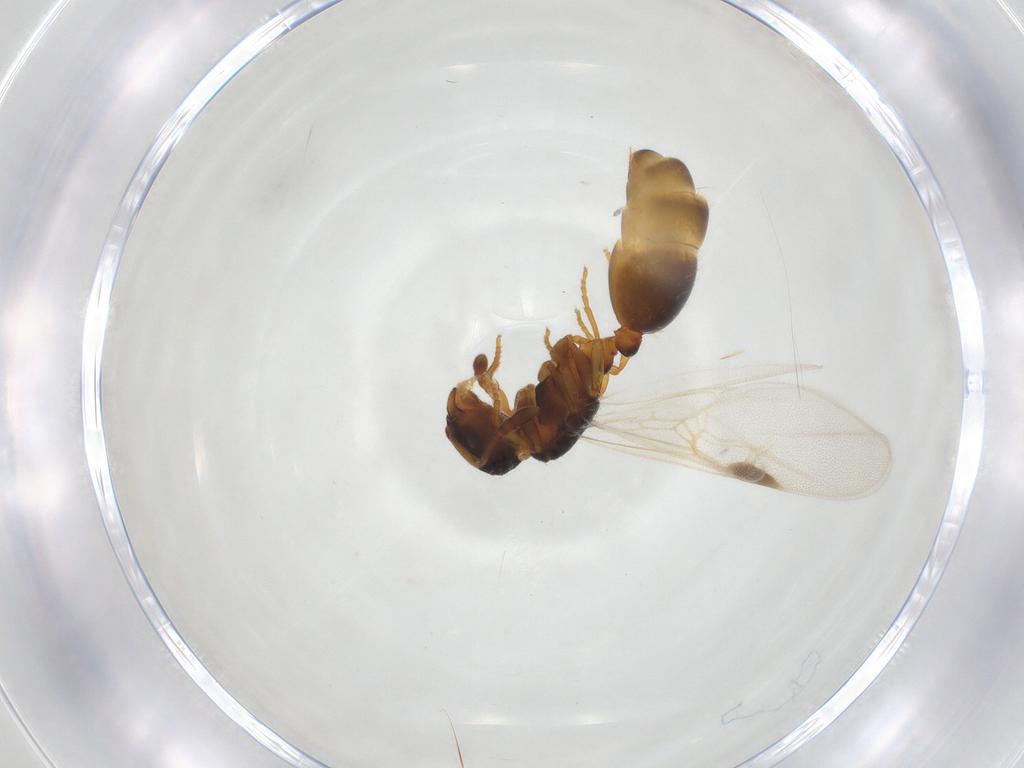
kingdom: Animalia
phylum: Arthropoda
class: Insecta
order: Hymenoptera
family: Formicidae
